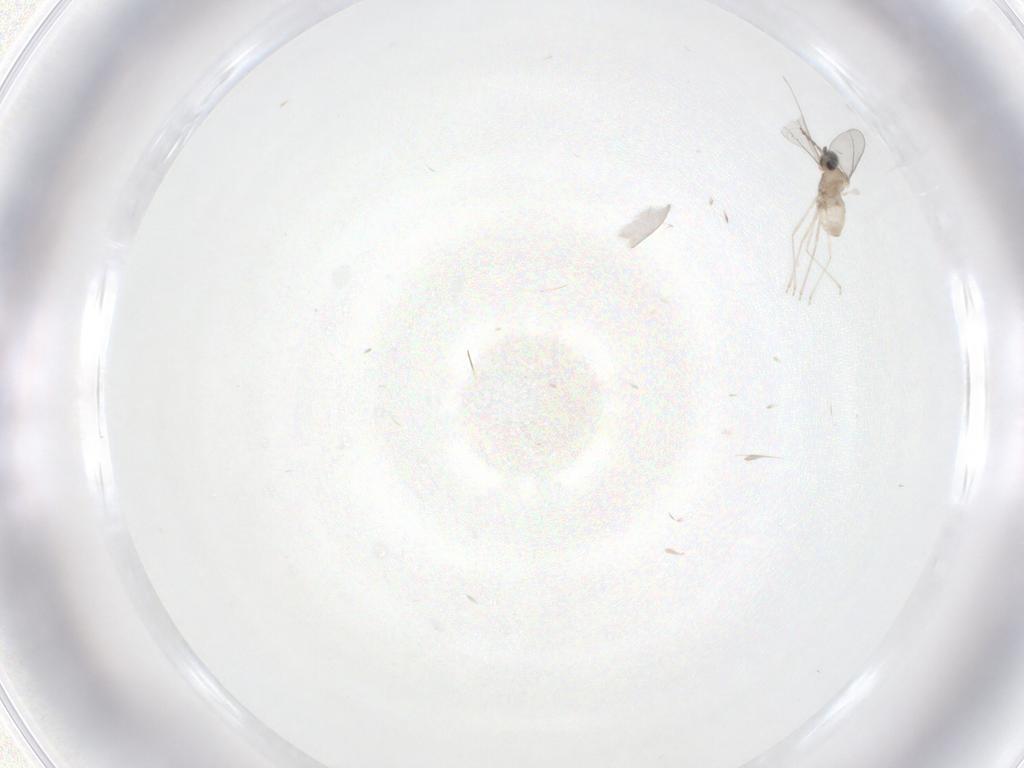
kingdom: Animalia
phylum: Arthropoda
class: Insecta
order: Diptera
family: Cecidomyiidae
